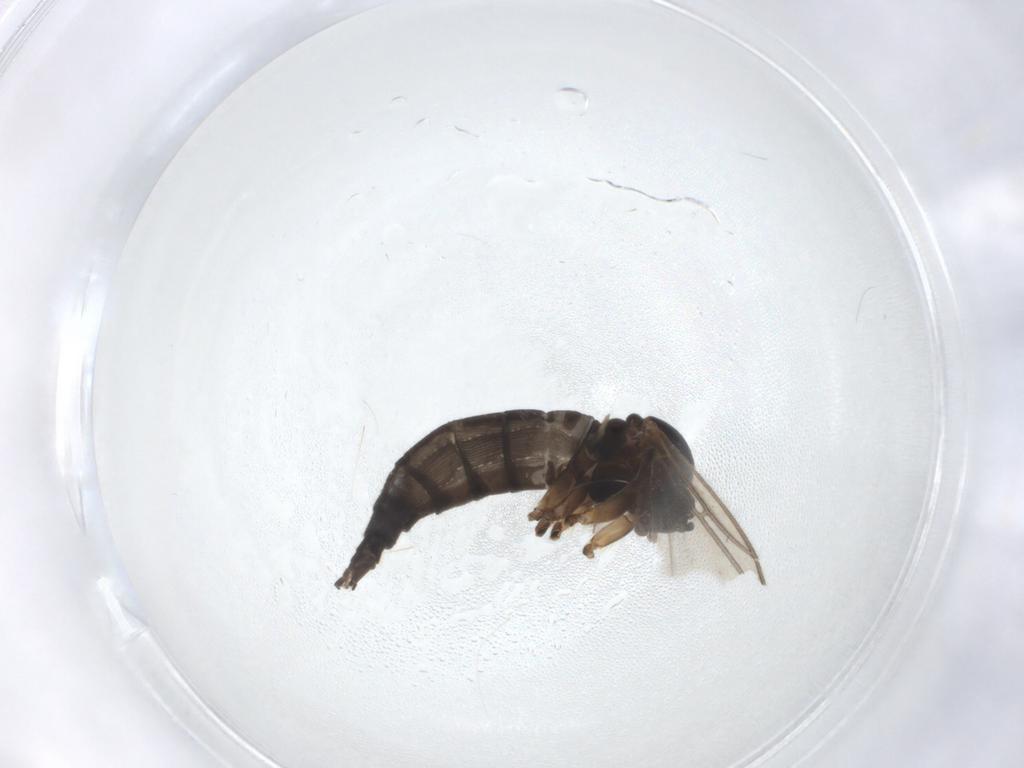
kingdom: Animalia
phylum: Arthropoda
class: Insecta
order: Diptera
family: Sciaridae
